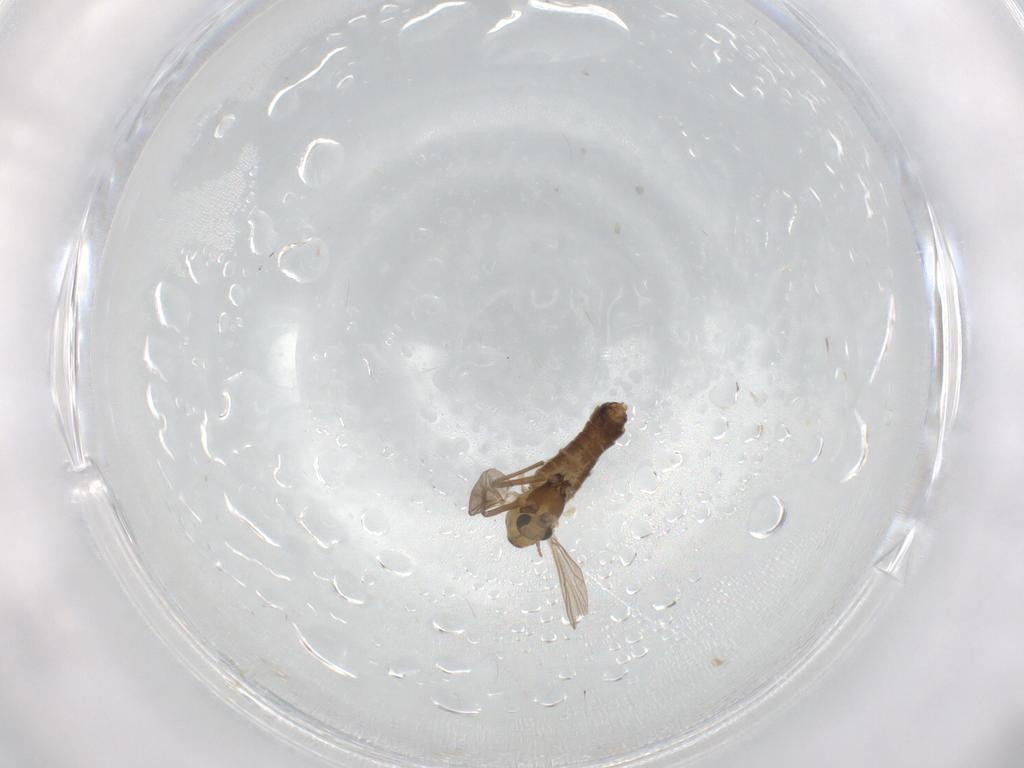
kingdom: Animalia
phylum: Arthropoda
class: Insecta
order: Diptera
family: Chironomidae
